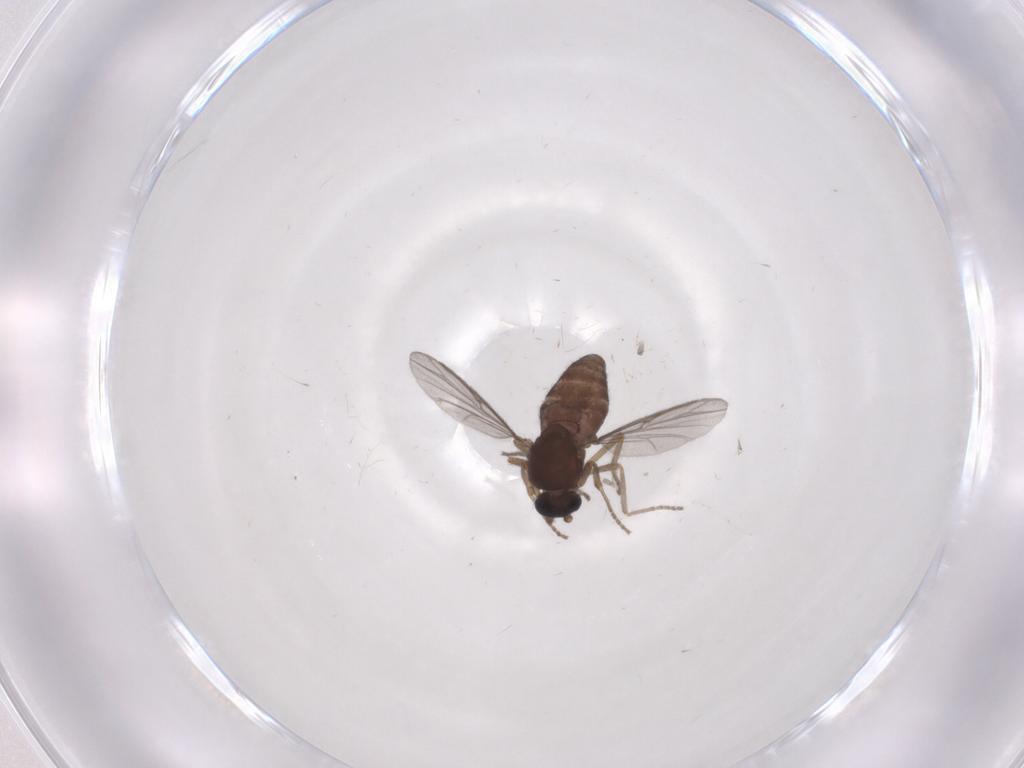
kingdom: Animalia
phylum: Arthropoda
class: Insecta
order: Diptera
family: Ceratopogonidae
